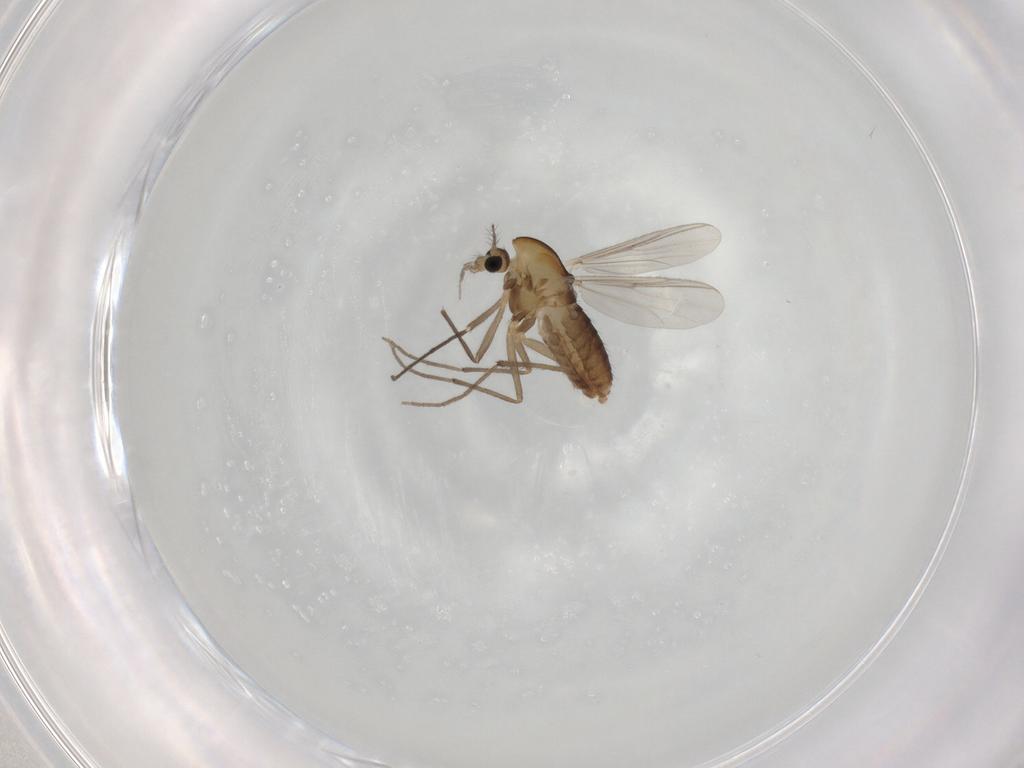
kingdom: Animalia
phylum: Arthropoda
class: Insecta
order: Diptera
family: Chironomidae
